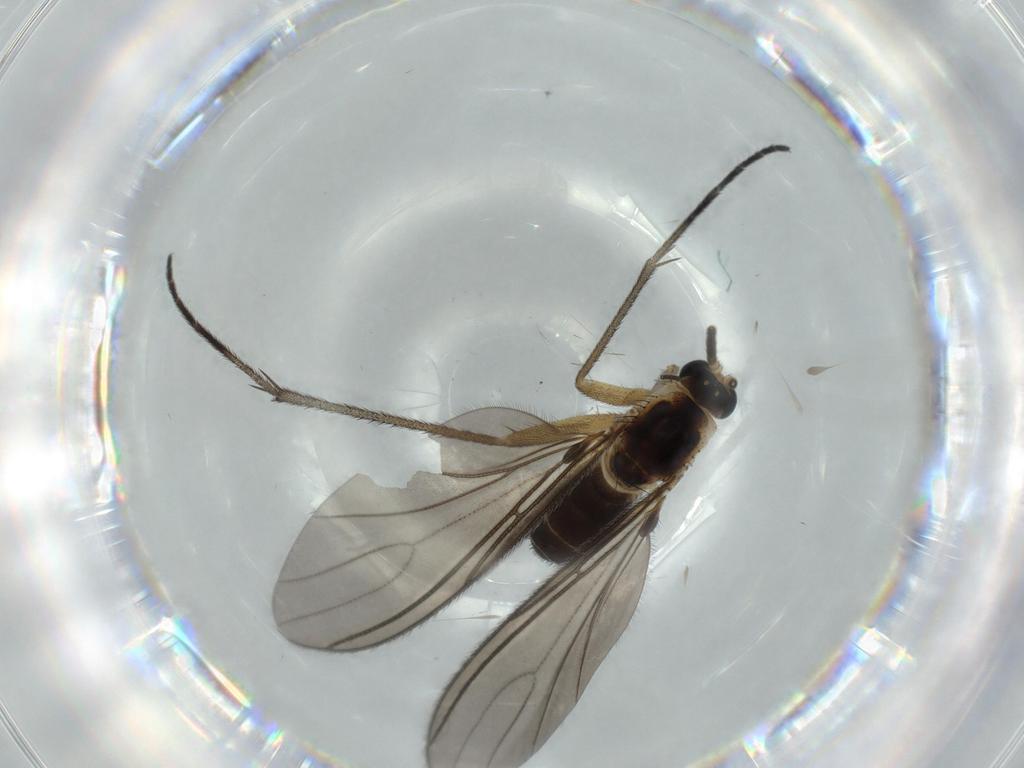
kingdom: Animalia
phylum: Arthropoda
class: Insecta
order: Diptera
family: Sciaridae
